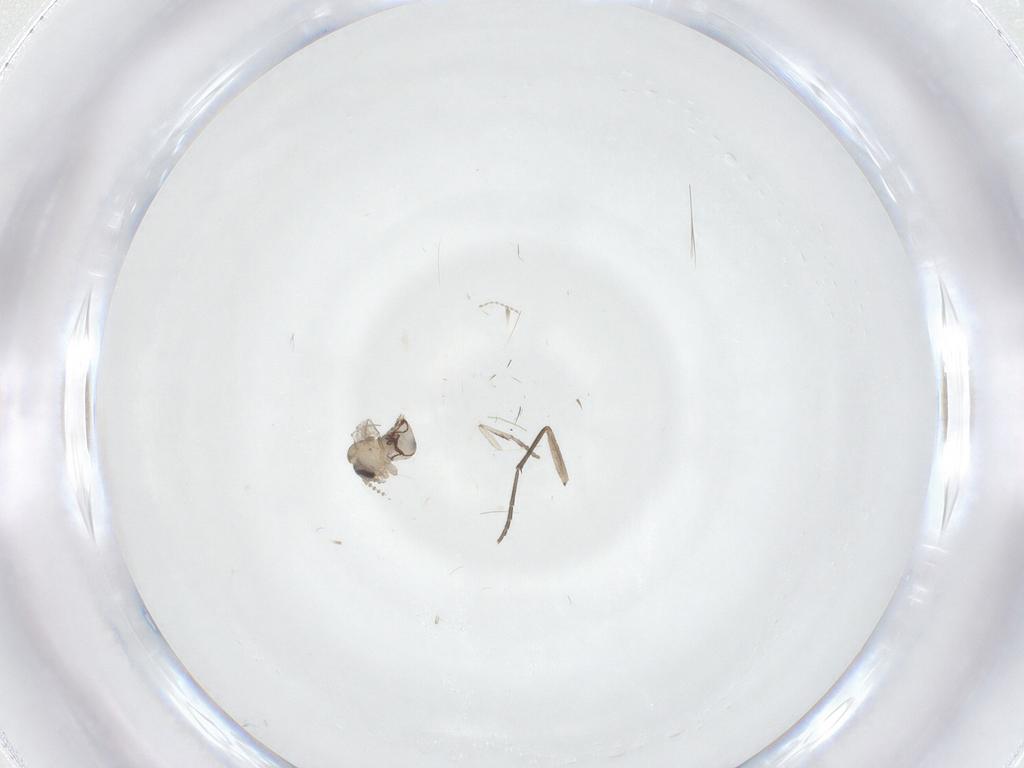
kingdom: Animalia
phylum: Arthropoda
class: Insecta
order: Diptera
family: Psychodidae
